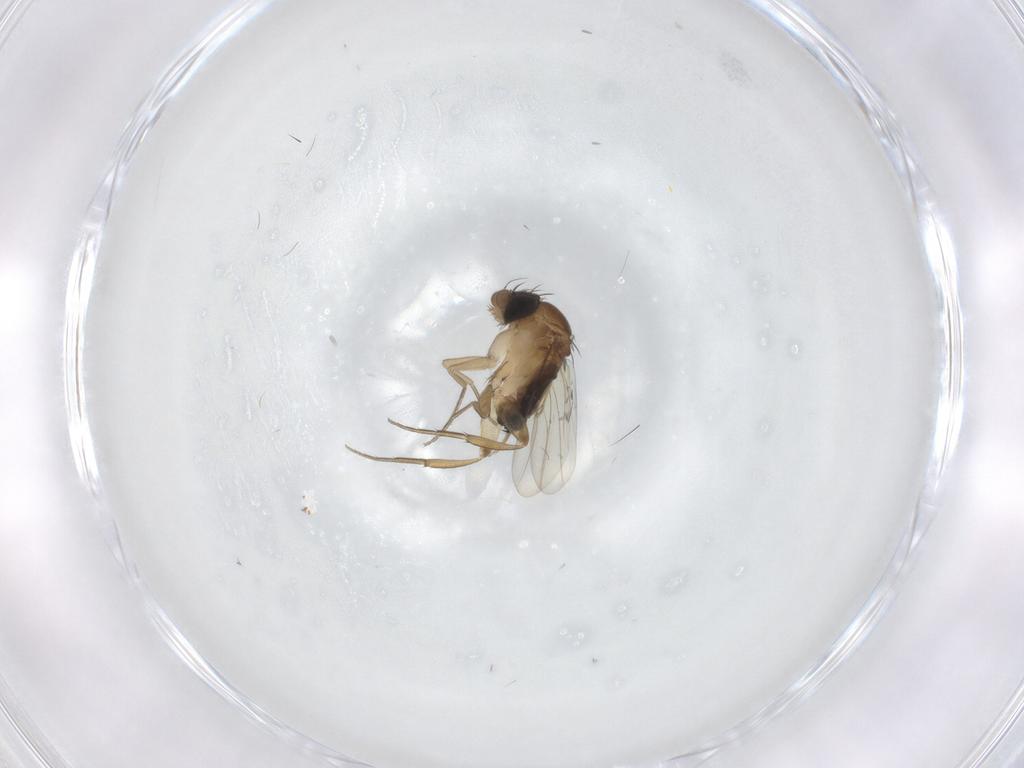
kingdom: Animalia
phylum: Arthropoda
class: Insecta
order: Diptera
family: Phoridae
